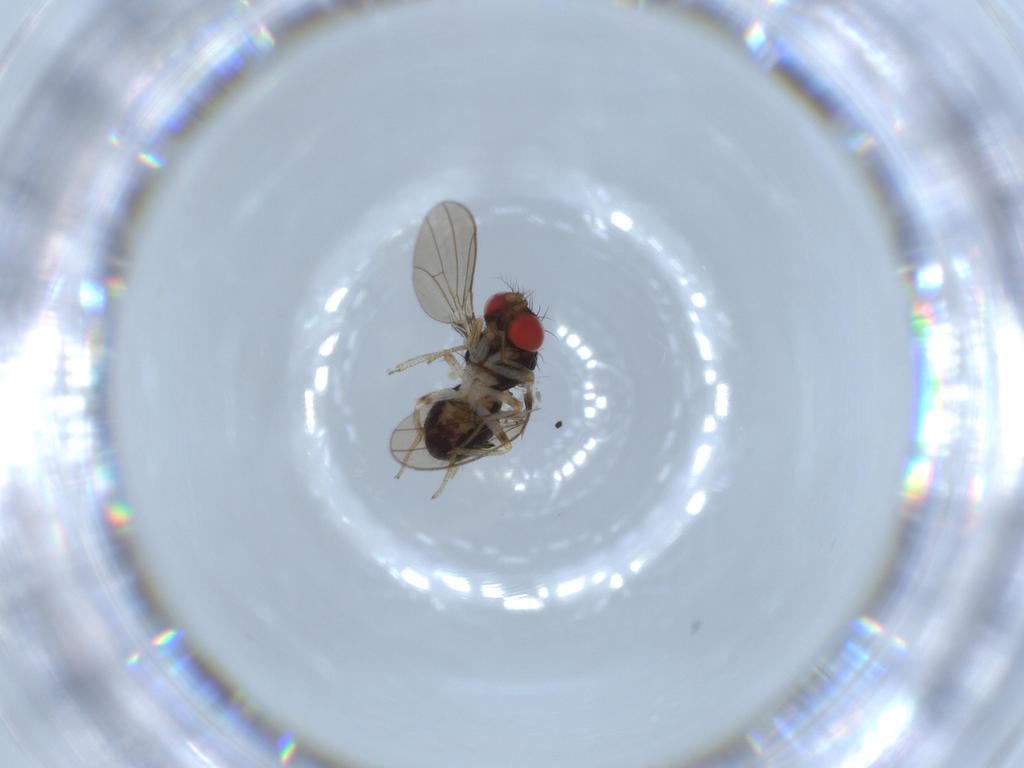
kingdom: Animalia
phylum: Arthropoda
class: Insecta
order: Diptera
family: Drosophilidae
